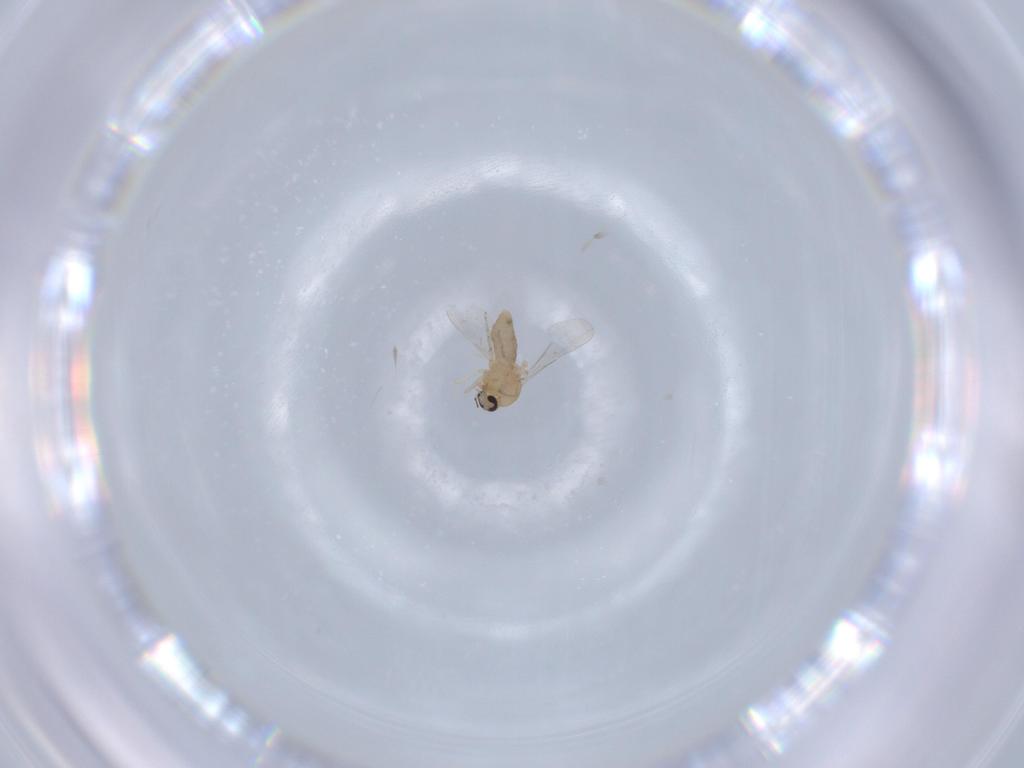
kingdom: Animalia
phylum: Arthropoda
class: Insecta
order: Diptera
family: Ceratopogonidae
